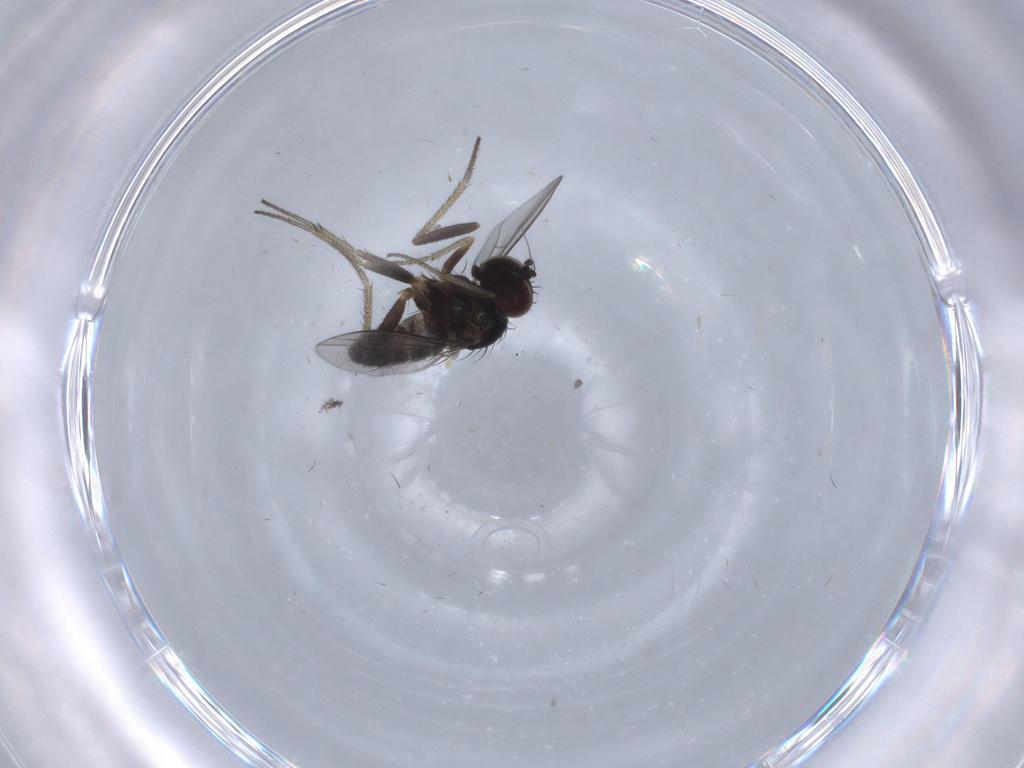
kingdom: Animalia
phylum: Arthropoda
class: Insecta
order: Diptera
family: Dolichopodidae
